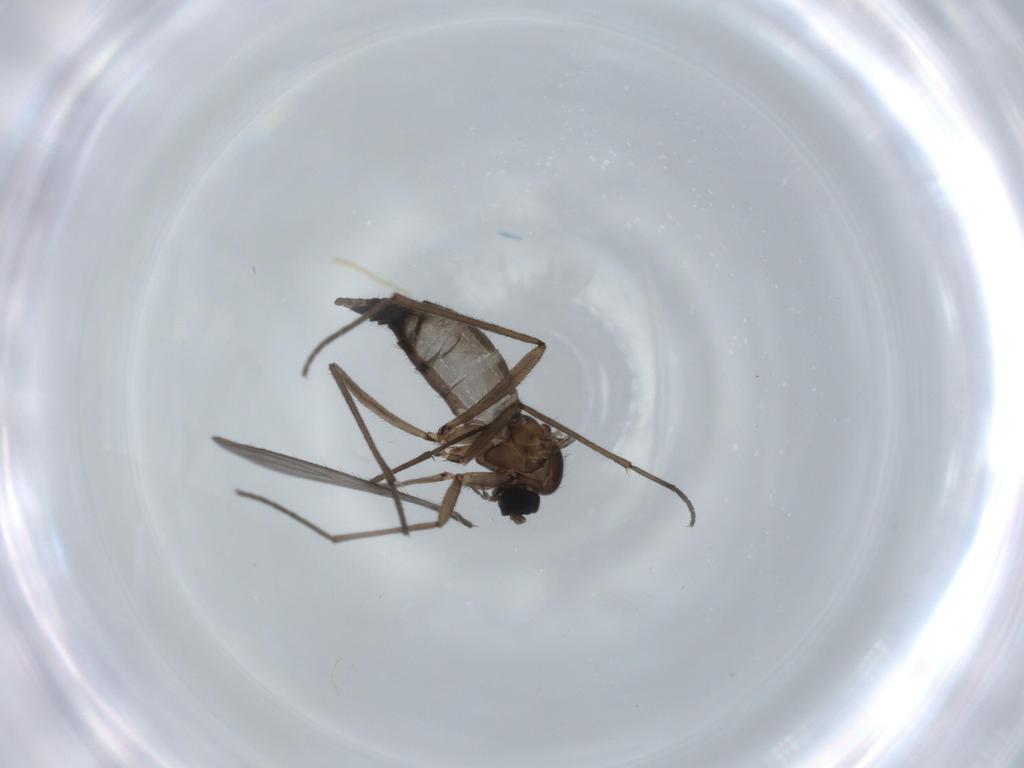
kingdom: Animalia
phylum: Arthropoda
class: Insecta
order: Diptera
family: Sciaridae
